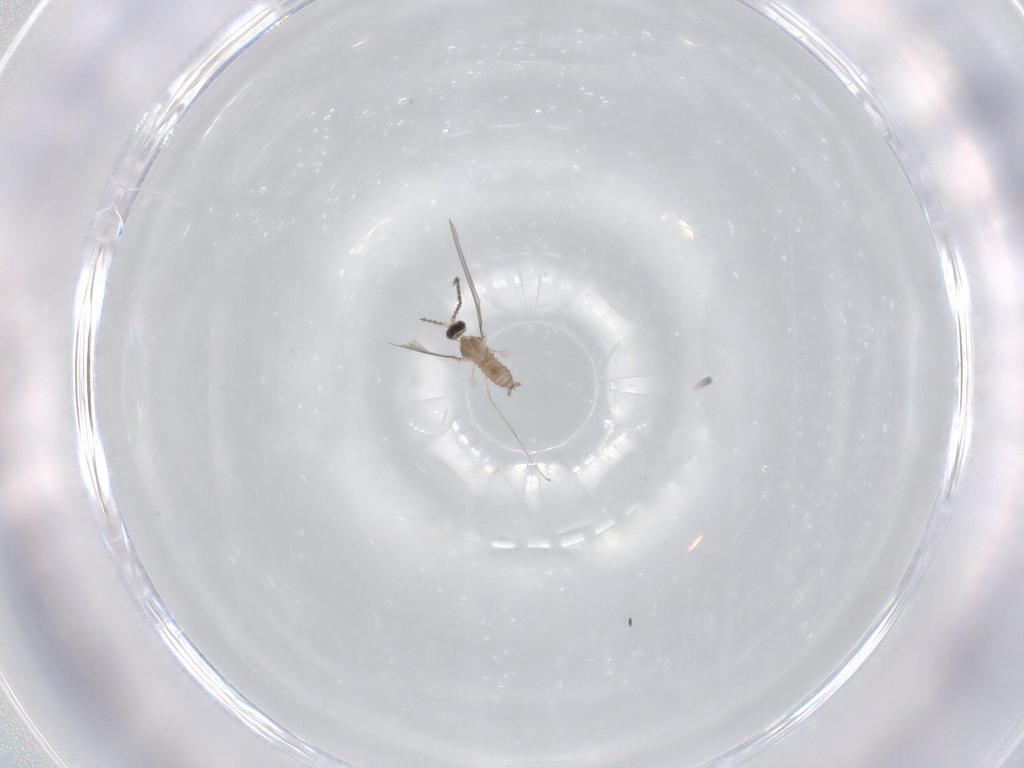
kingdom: Animalia
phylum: Arthropoda
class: Insecta
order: Diptera
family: Cecidomyiidae
